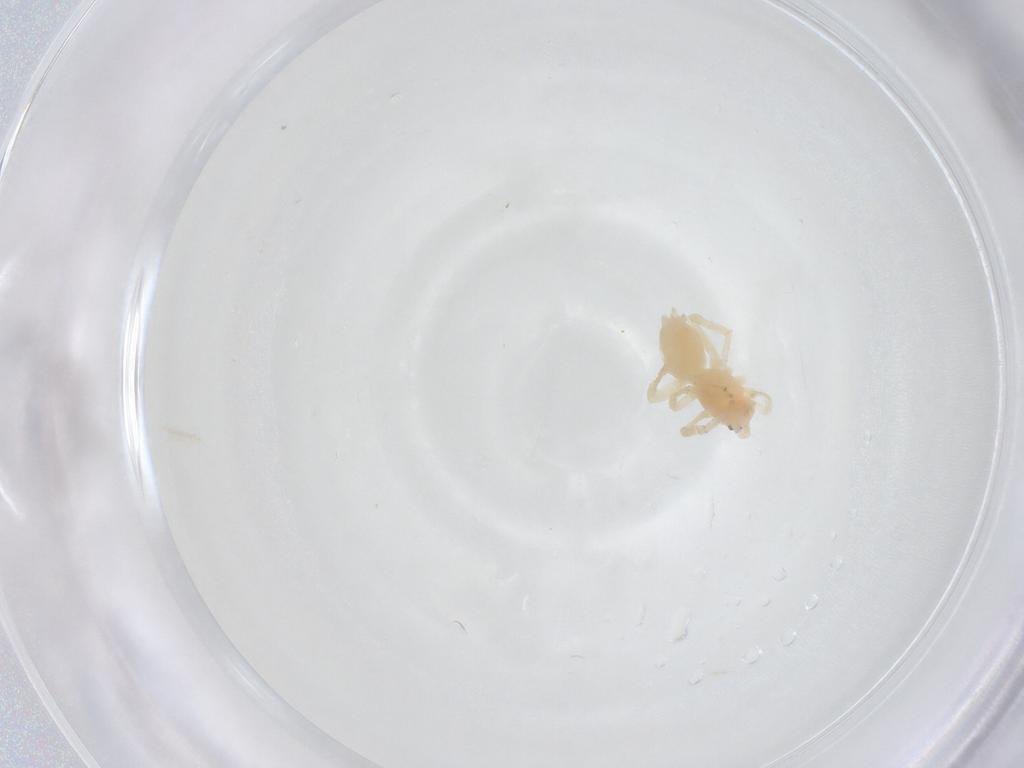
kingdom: Animalia
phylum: Arthropoda
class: Arachnida
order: Araneae
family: Anyphaenidae
